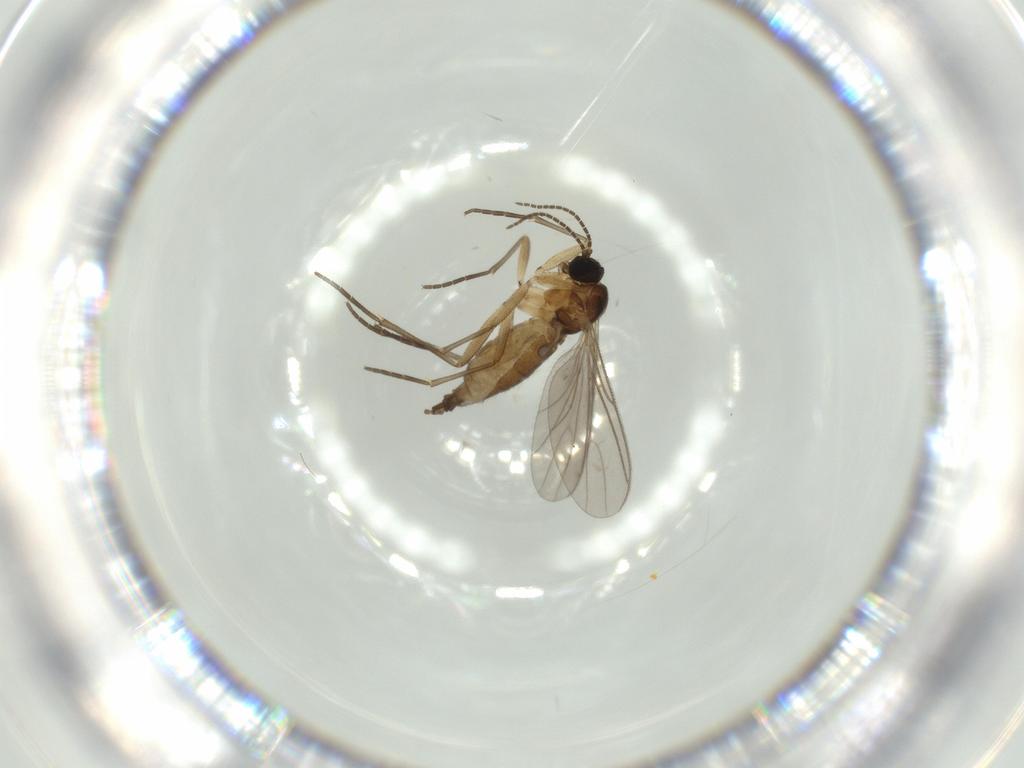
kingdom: Animalia
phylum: Arthropoda
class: Insecta
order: Diptera
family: Sciaridae
